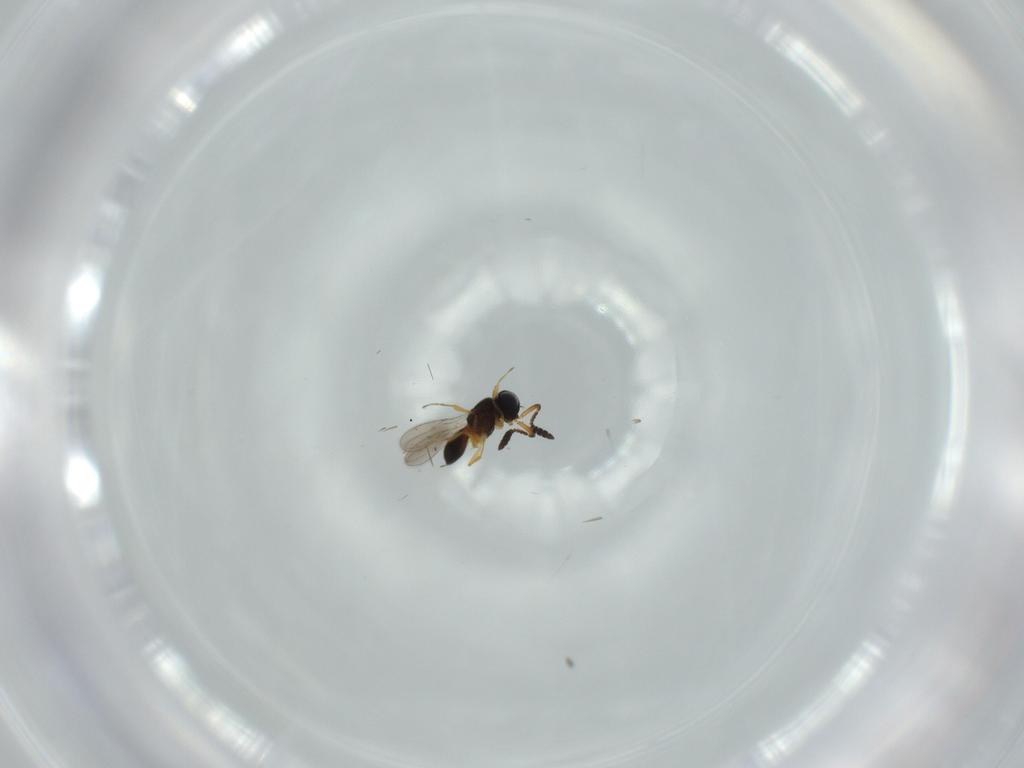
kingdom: Animalia
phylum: Arthropoda
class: Insecta
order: Hymenoptera
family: Scelionidae
